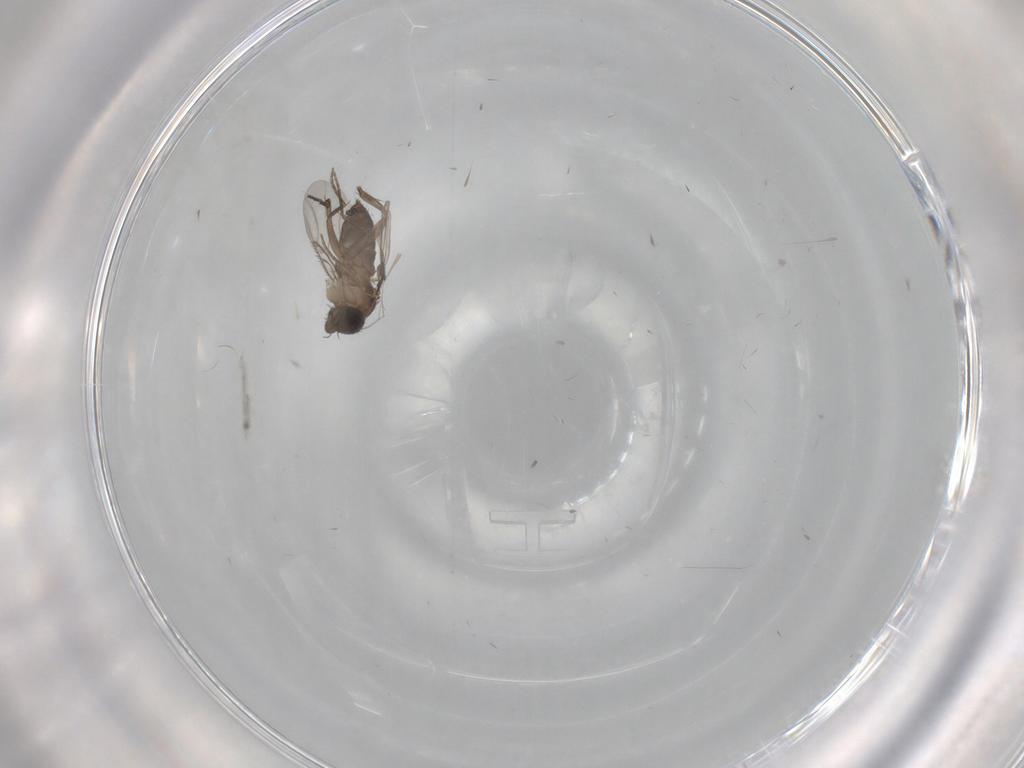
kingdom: Animalia
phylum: Arthropoda
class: Insecta
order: Diptera
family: Phoridae
